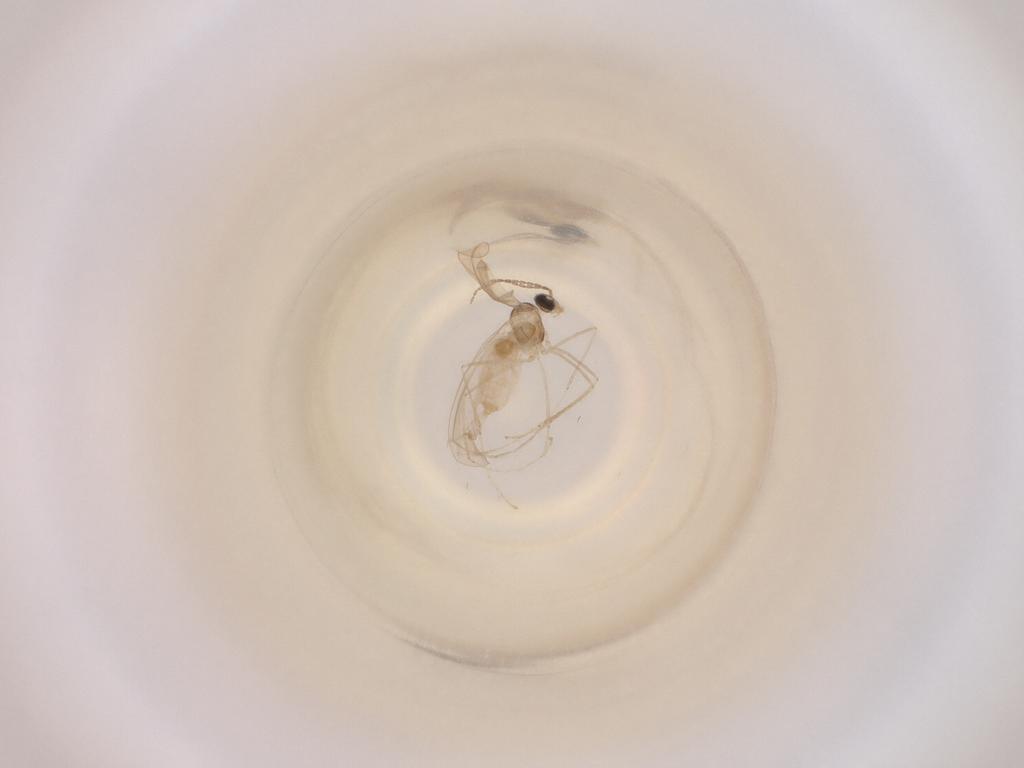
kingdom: Animalia
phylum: Arthropoda
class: Insecta
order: Diptera
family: Cecidomyiidae
